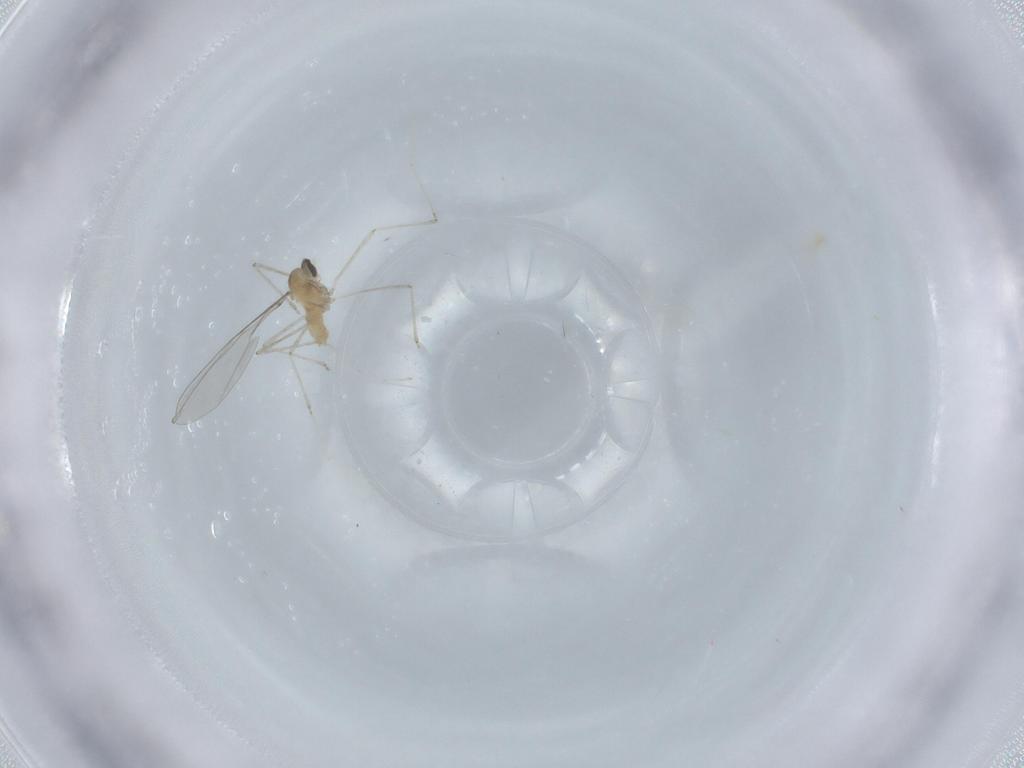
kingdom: Animalia
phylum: Arthropoda
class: Insecta
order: Diptera
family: Cecidomyiidae
